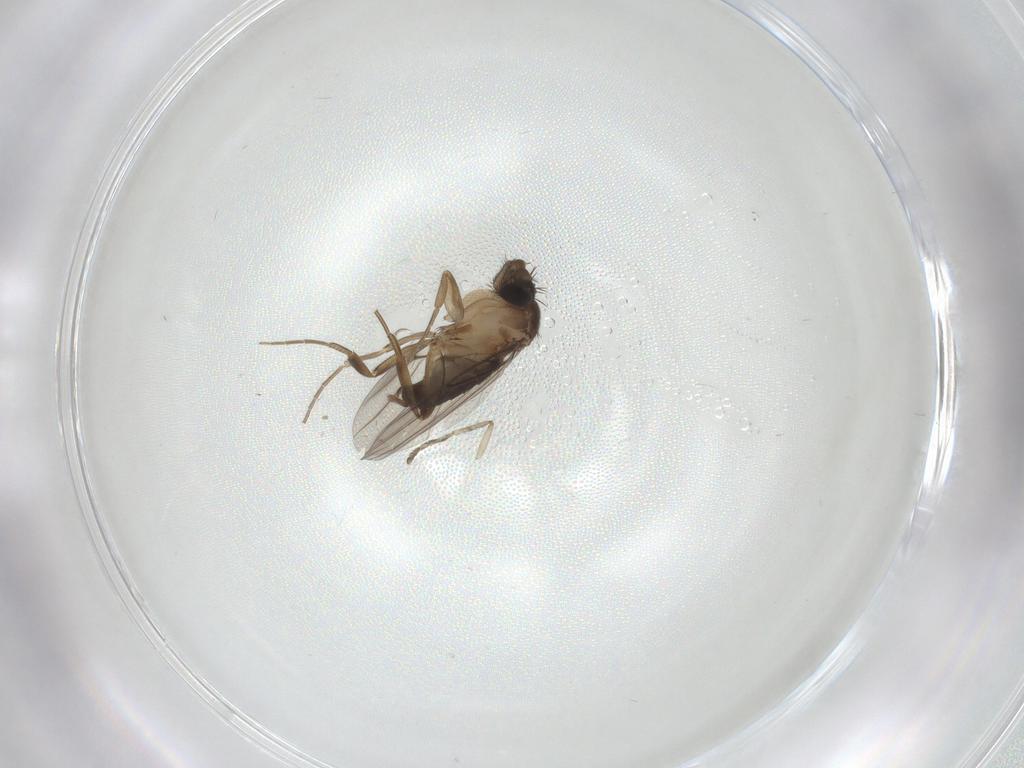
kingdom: Animalia
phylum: Arthropoda
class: Insecta
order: Diptera
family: Phoridae
